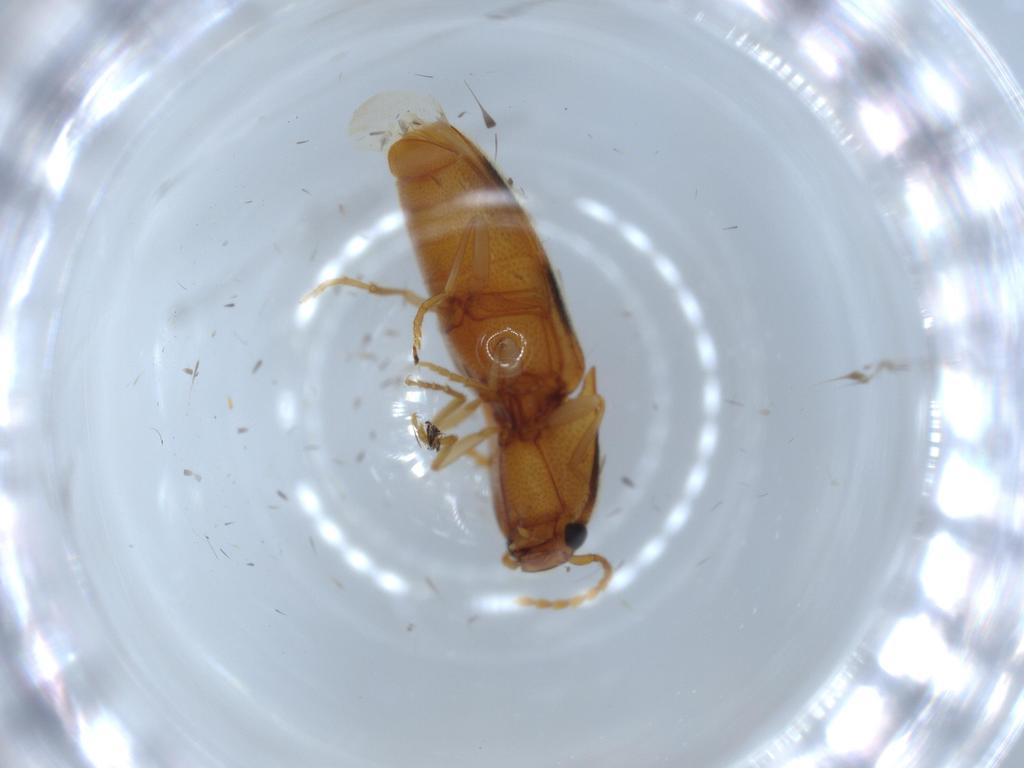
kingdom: Animalia
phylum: Arthropoda
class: Insecta
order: Coleoptera
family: Elateridae
